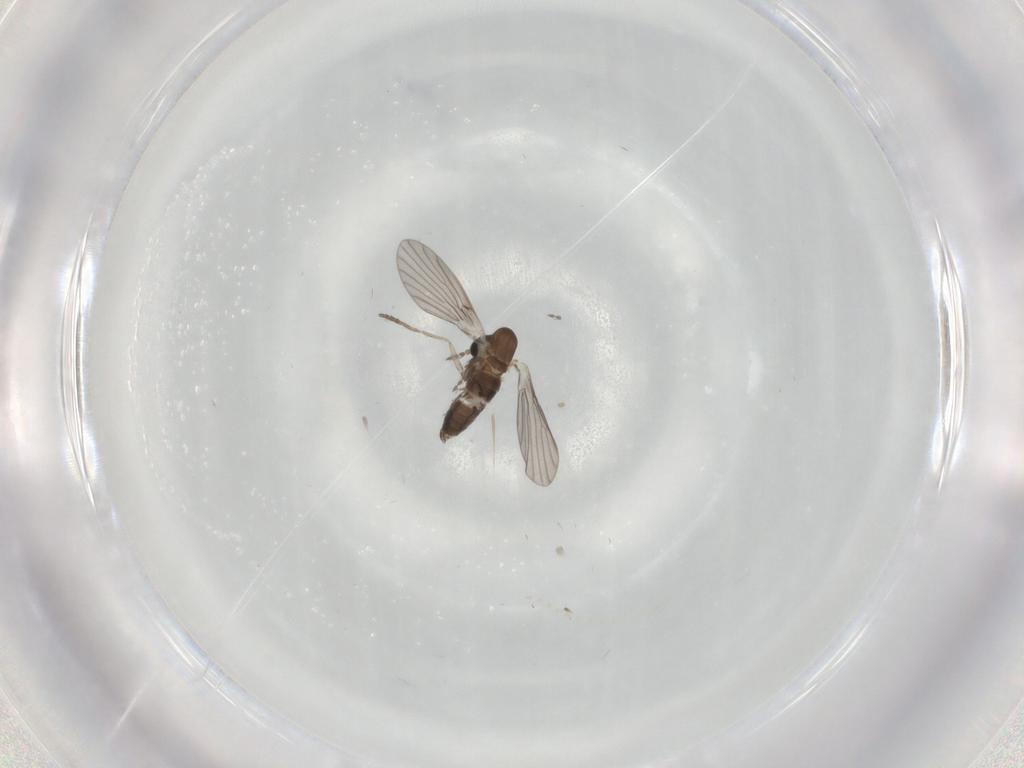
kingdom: Animalia
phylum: Arthropoda
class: Insecta
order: Diptera
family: Cecidomyiidae
